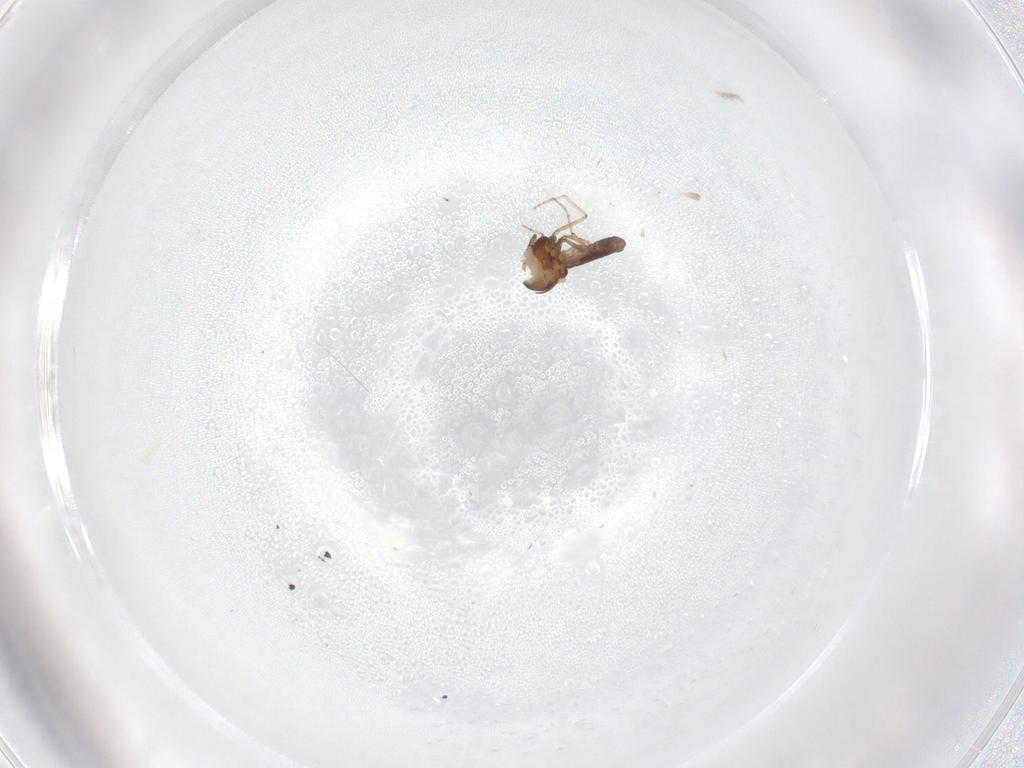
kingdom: Animalia
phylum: Arthropoda
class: Insecta
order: Diptera
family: Ceratopogonidae
